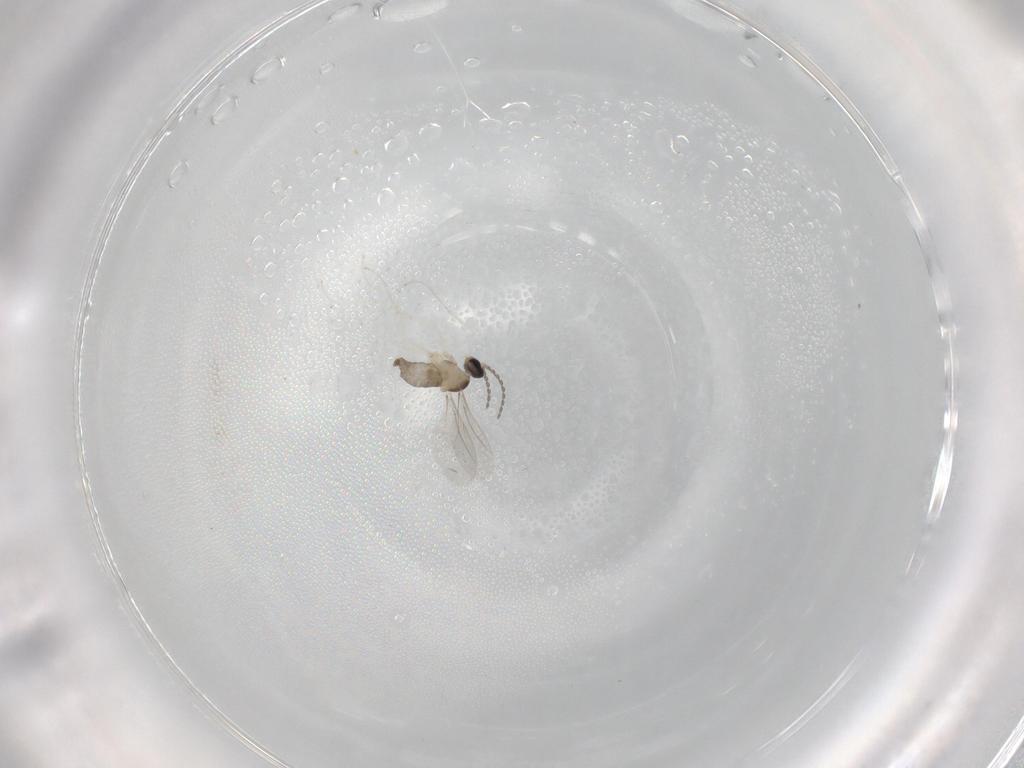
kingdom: Animalia
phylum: Arthropoda
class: Insecta
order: Diptera
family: Cecidomyiidae
